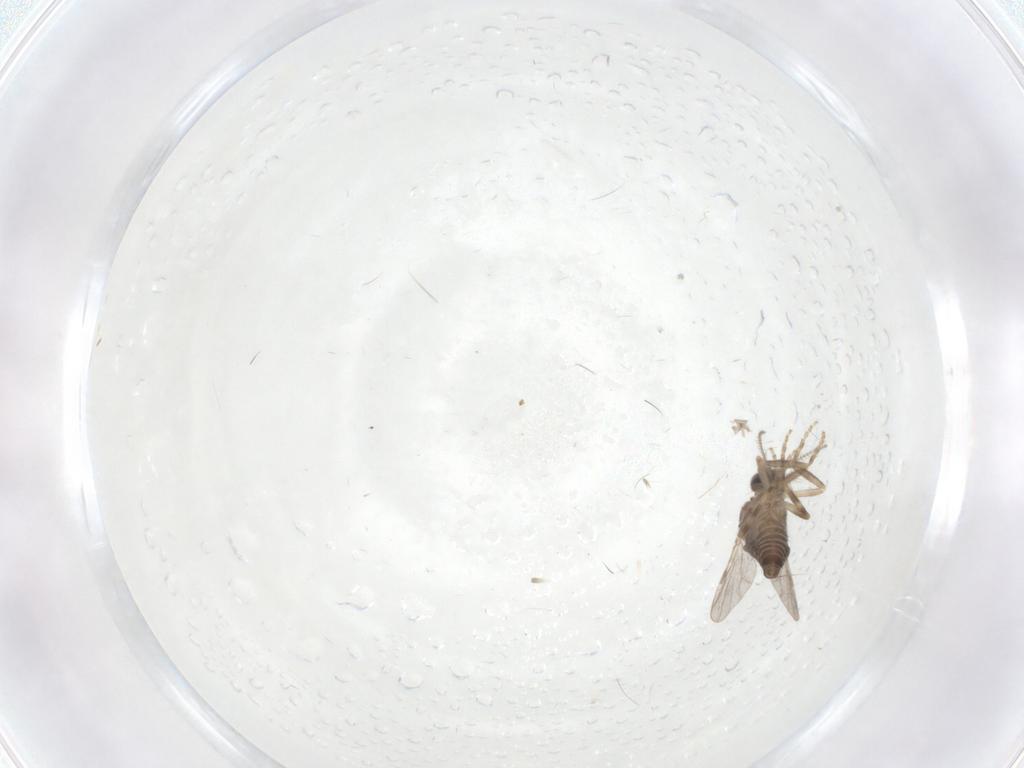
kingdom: Animalia
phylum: Arthropoda
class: Insecta
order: Diptera
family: Ceratopogonidae
